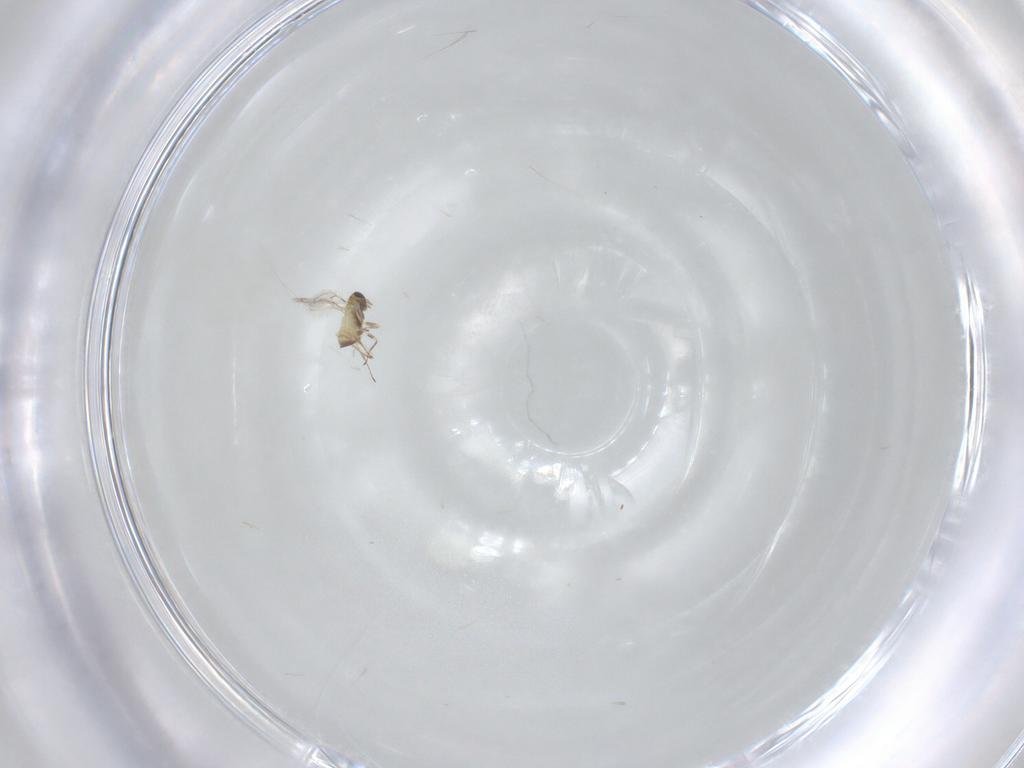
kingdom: Animalia
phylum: Arthropoda
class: Insecta
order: Hymenoptera
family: Trichogrammatidae
